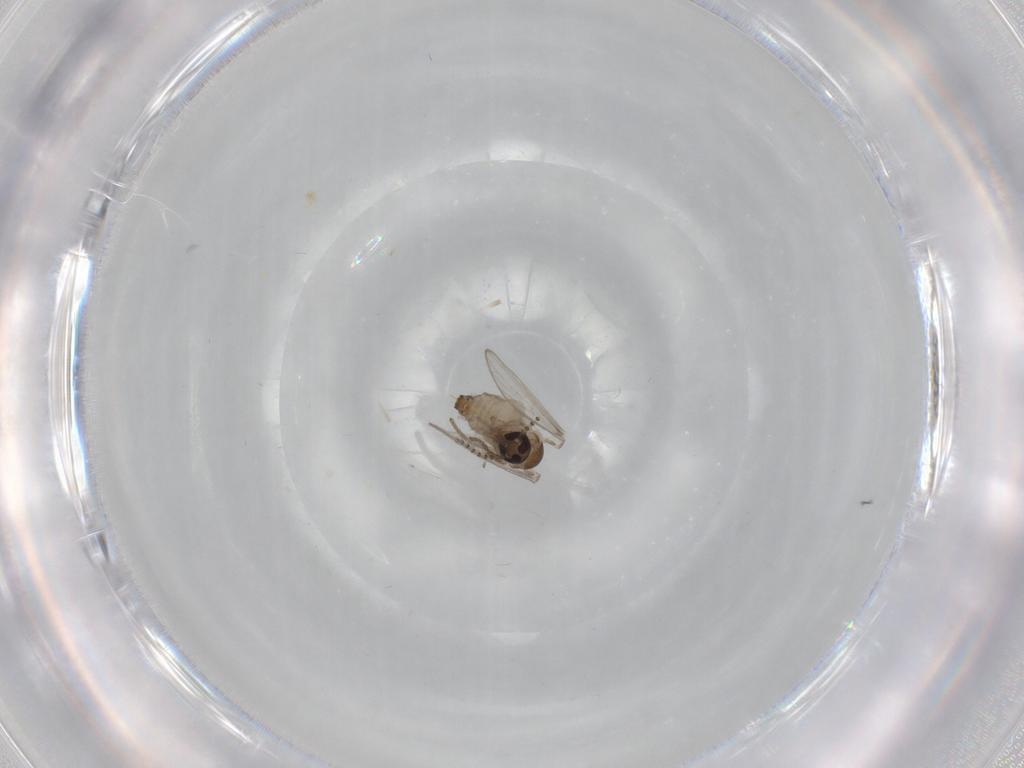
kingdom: Animalia
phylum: Arthropoda
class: Insecta
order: Diptera
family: Psychodidae
